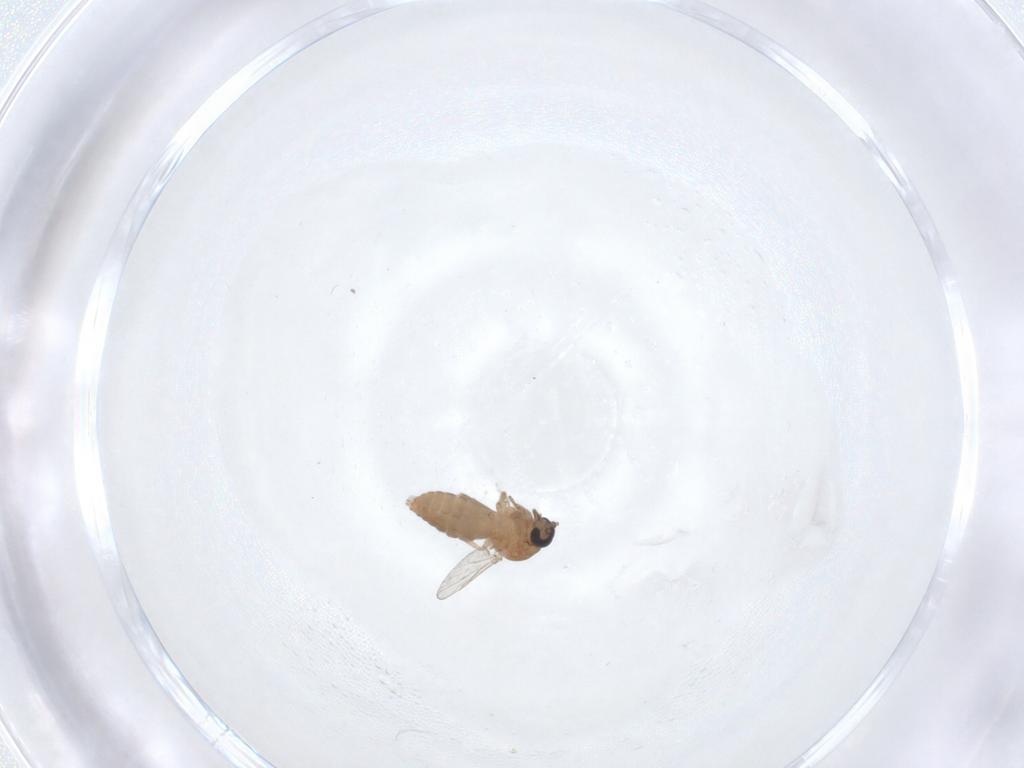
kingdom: Animalia
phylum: Arthropoda
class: Insecta
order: Diptera
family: Ceratopogonidae
